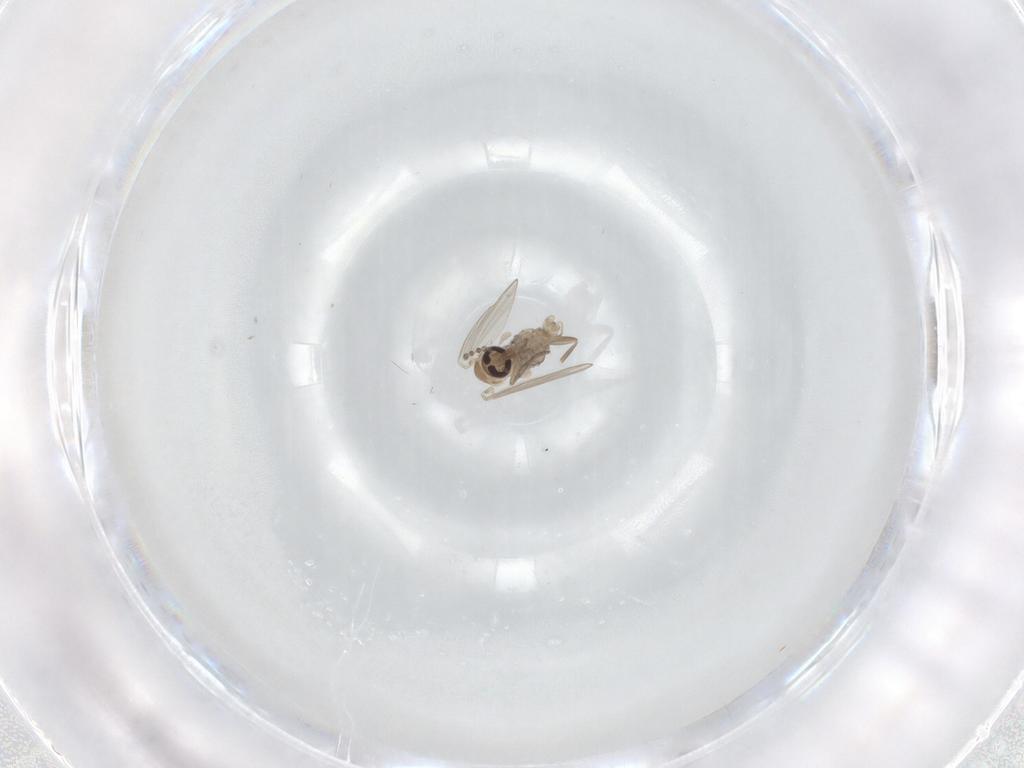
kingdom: Animalia
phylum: Arthropoda
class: Insecta
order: Diptera
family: Psychodidae
